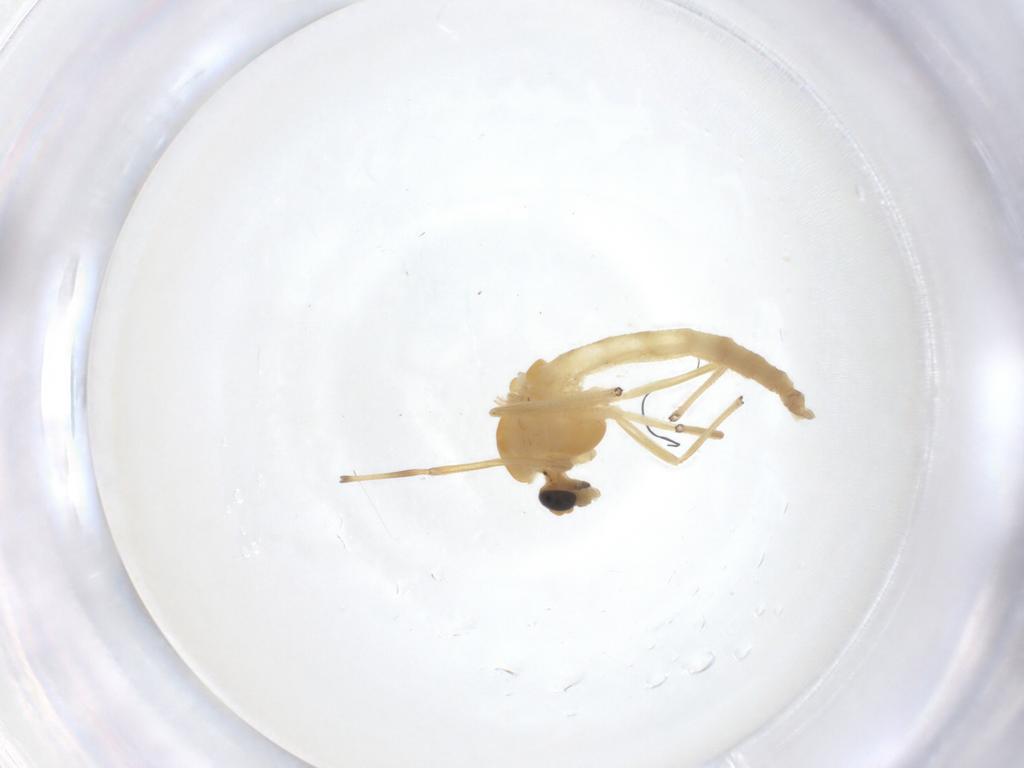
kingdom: Animalia
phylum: Arthropoda
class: Insecta
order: Diptera
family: Chironomidae
